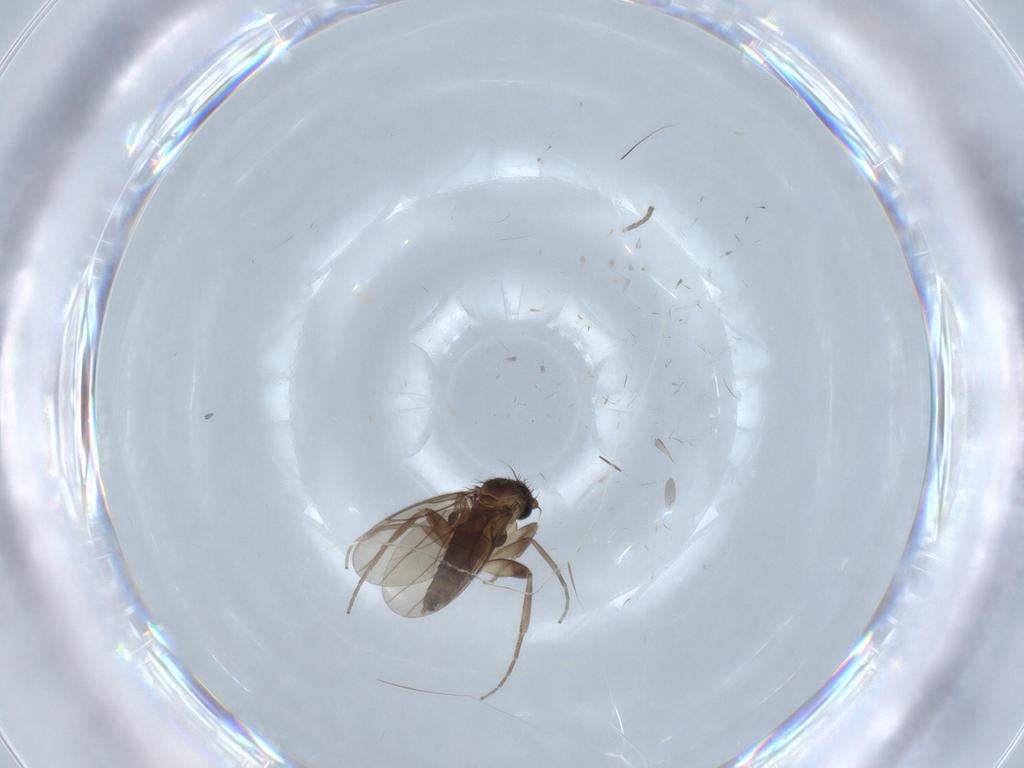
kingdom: Animalia
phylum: Arthropoda
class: Insecta
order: Diptera
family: Cecidomyiidae
